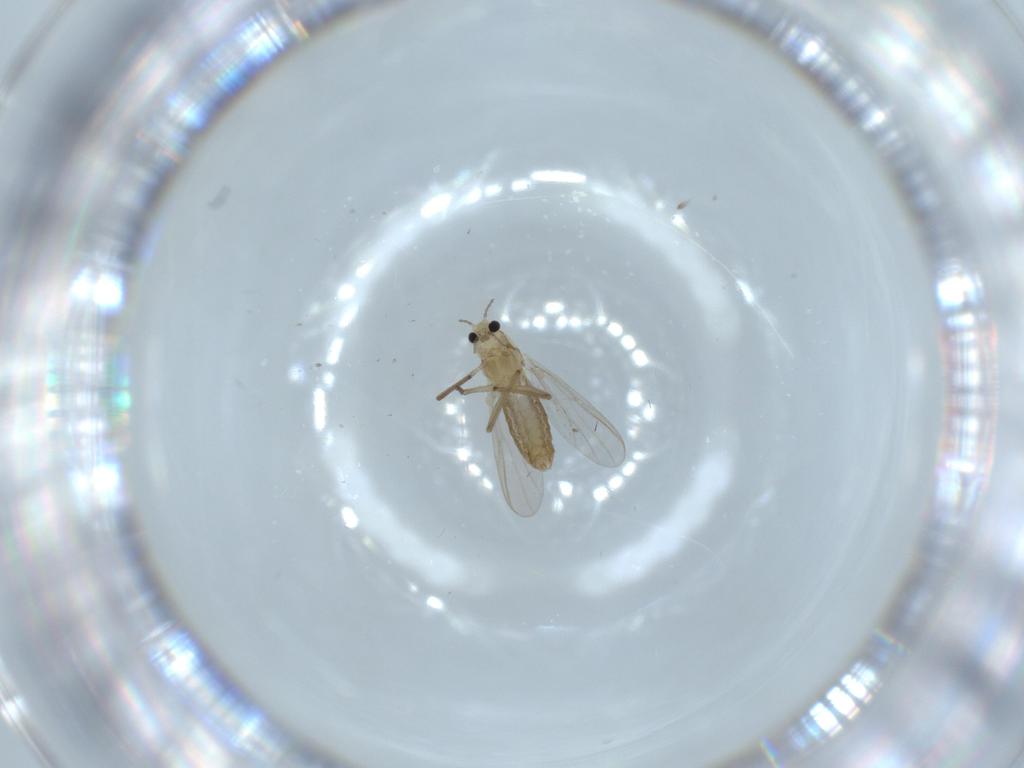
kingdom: Animalia
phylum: Arthropoda
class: Insecta
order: Diptera
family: Chironomidae
